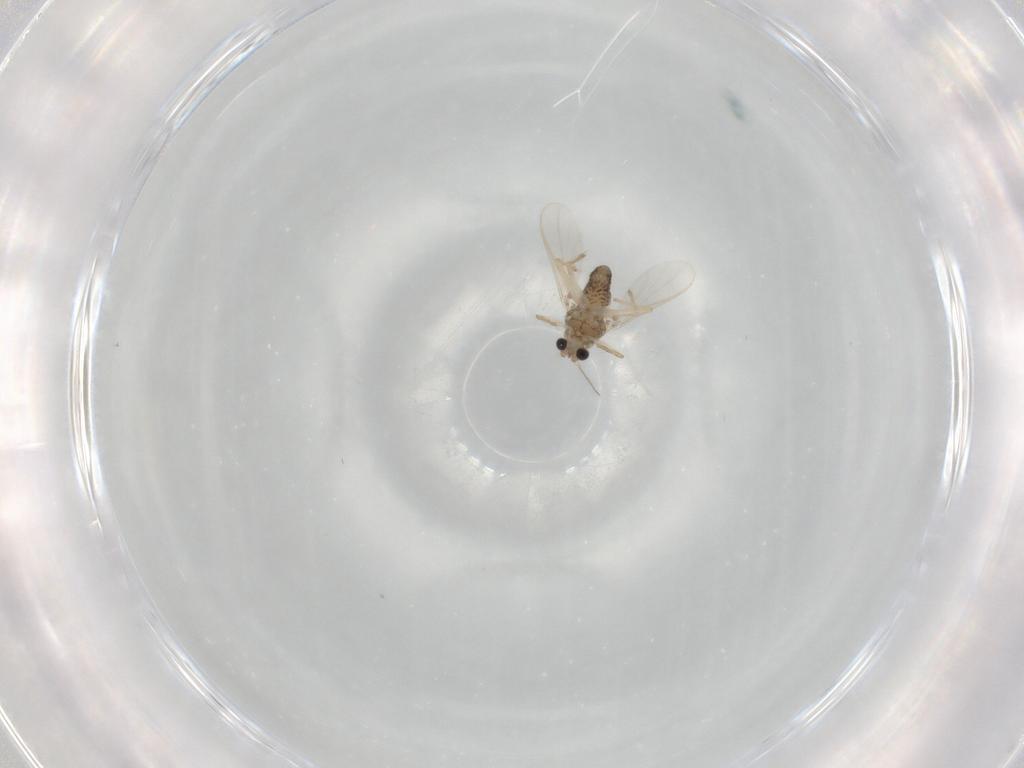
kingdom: Animalia
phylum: Arthropoda
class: Insecta
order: Diptera
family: Chironomidae
